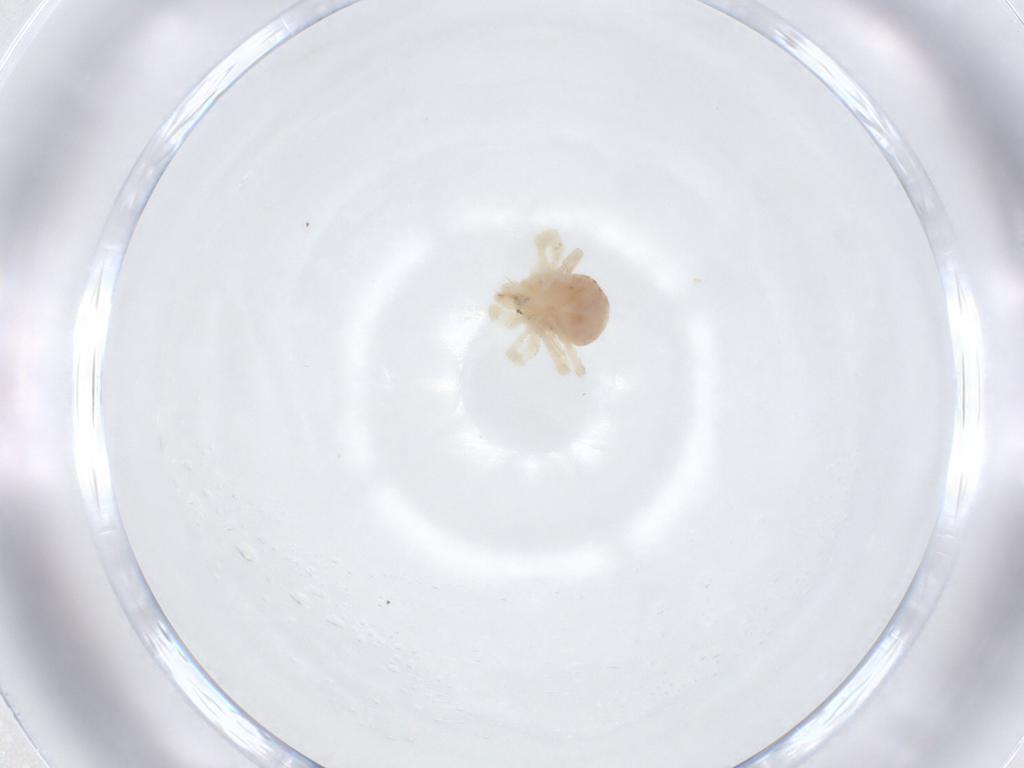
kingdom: Animalia
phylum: Arthropoda
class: Arachnida
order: Trombidiformes
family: Anystidae
